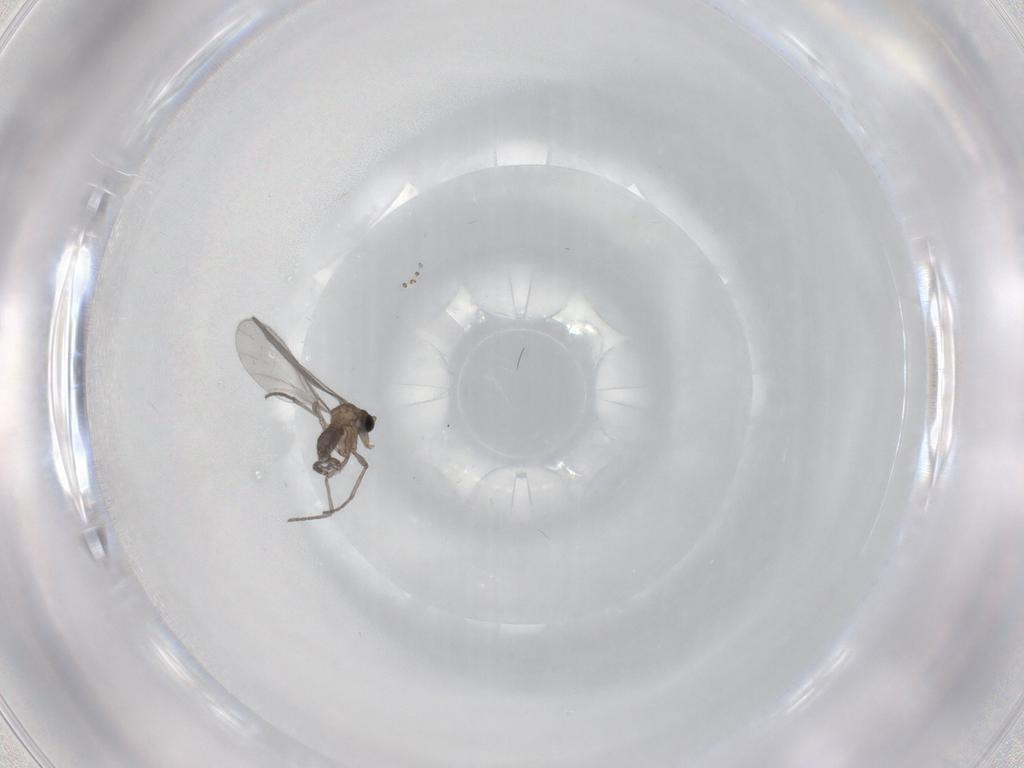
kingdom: Animalia
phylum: Arthropoda
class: Insecta
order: Diptera
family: Sciaridae
